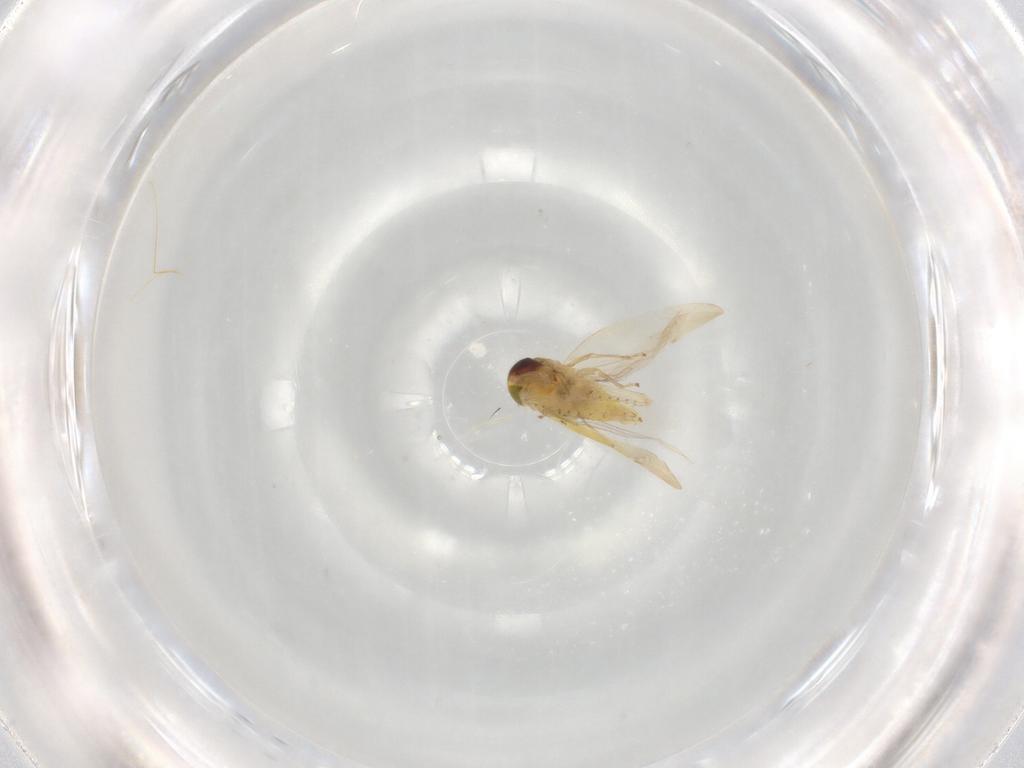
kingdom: Animalia
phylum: Arthropoda
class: Insecta
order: Hemiptera
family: Cicadellidae
